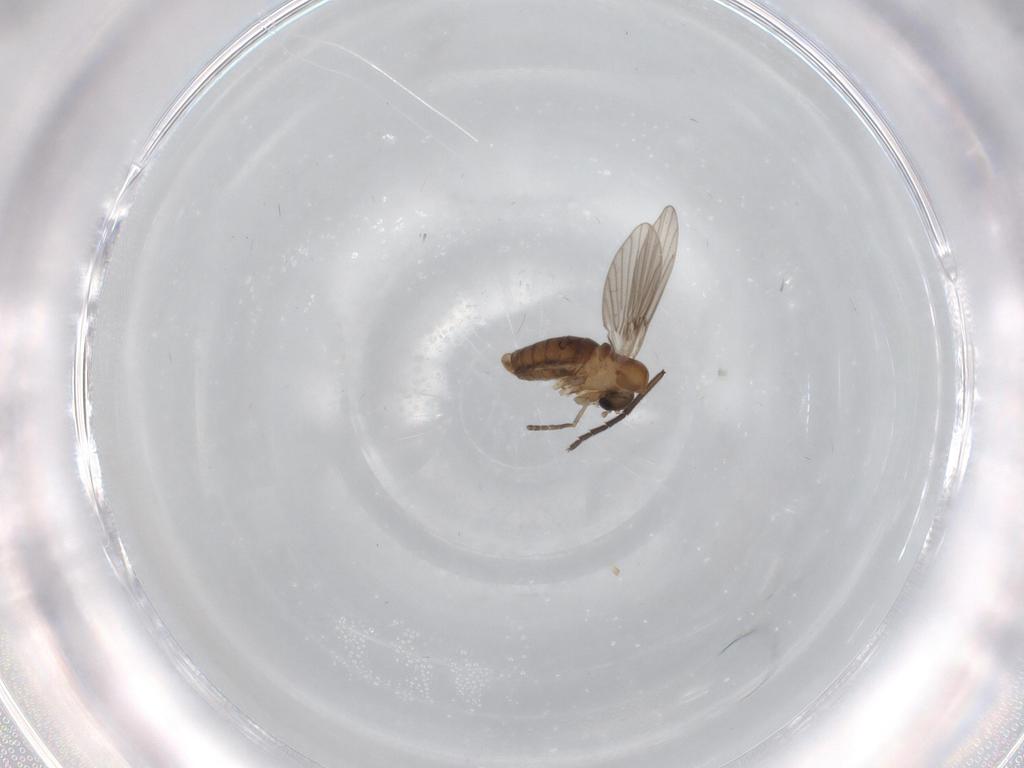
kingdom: Animalia
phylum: Arthropoda
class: Insecta
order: Diptera
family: Sciaridae
